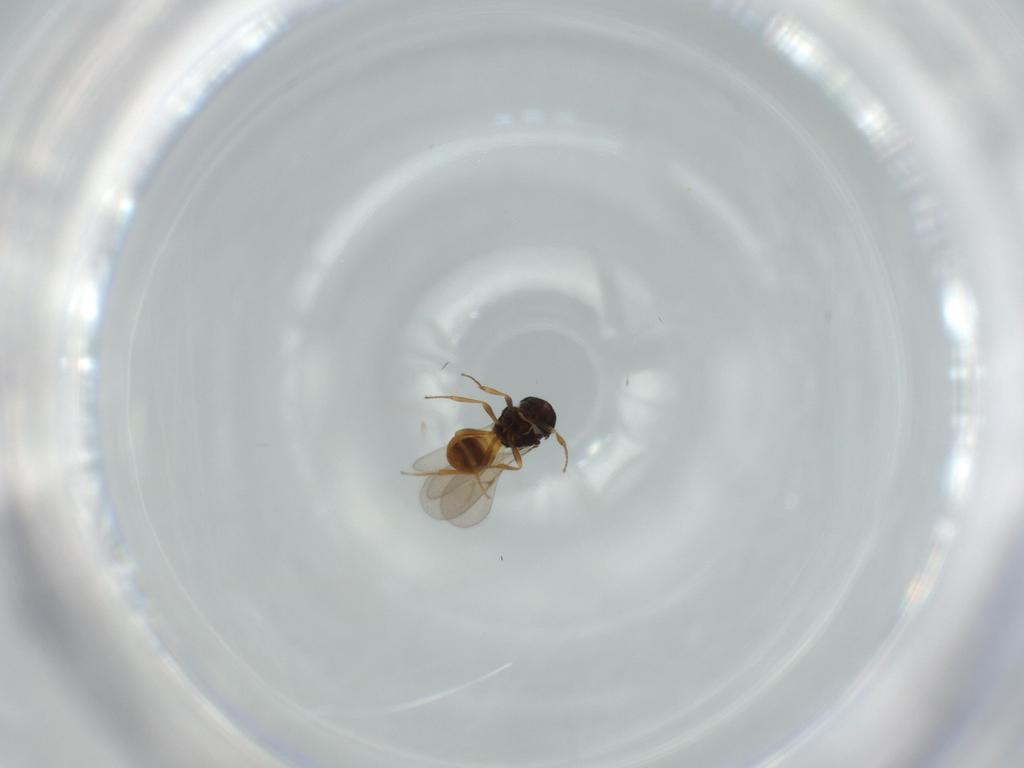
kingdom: Animalia
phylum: Arthropoda
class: Insecta
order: Hymenoptera
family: Scelionidae
